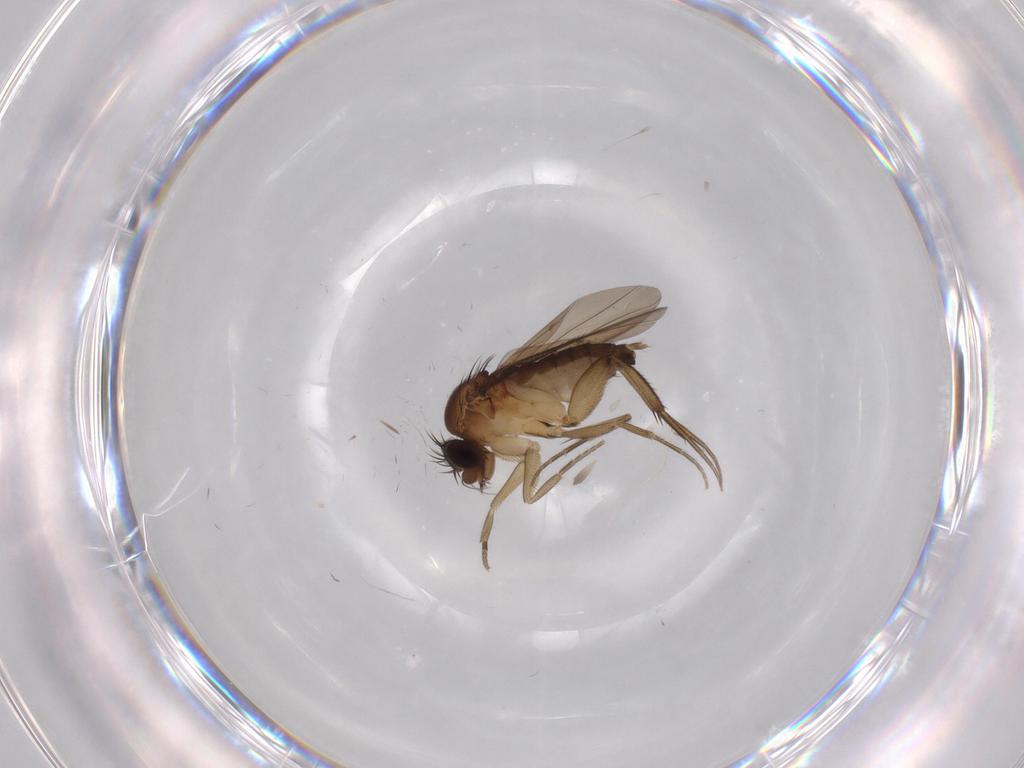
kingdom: Animalia
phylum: Arthropoda
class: Insecta
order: Diptera
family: Phoridae
